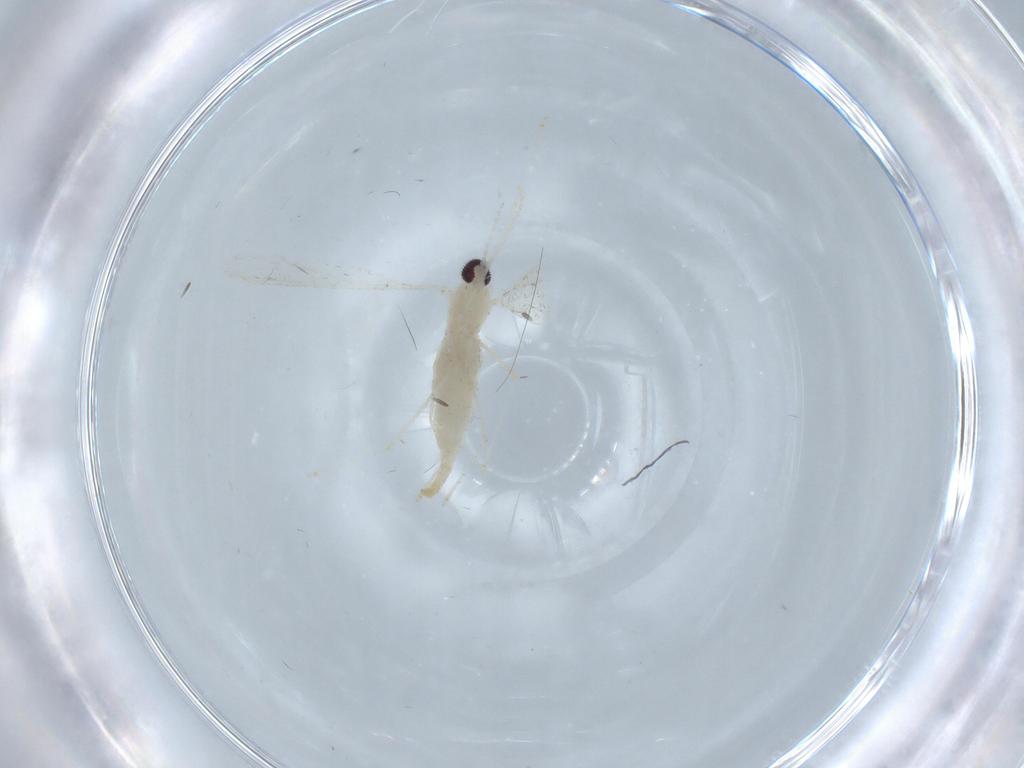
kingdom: Animalia
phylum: Arthropoda
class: Insecta
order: Diptera
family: Cecidomyiidae
